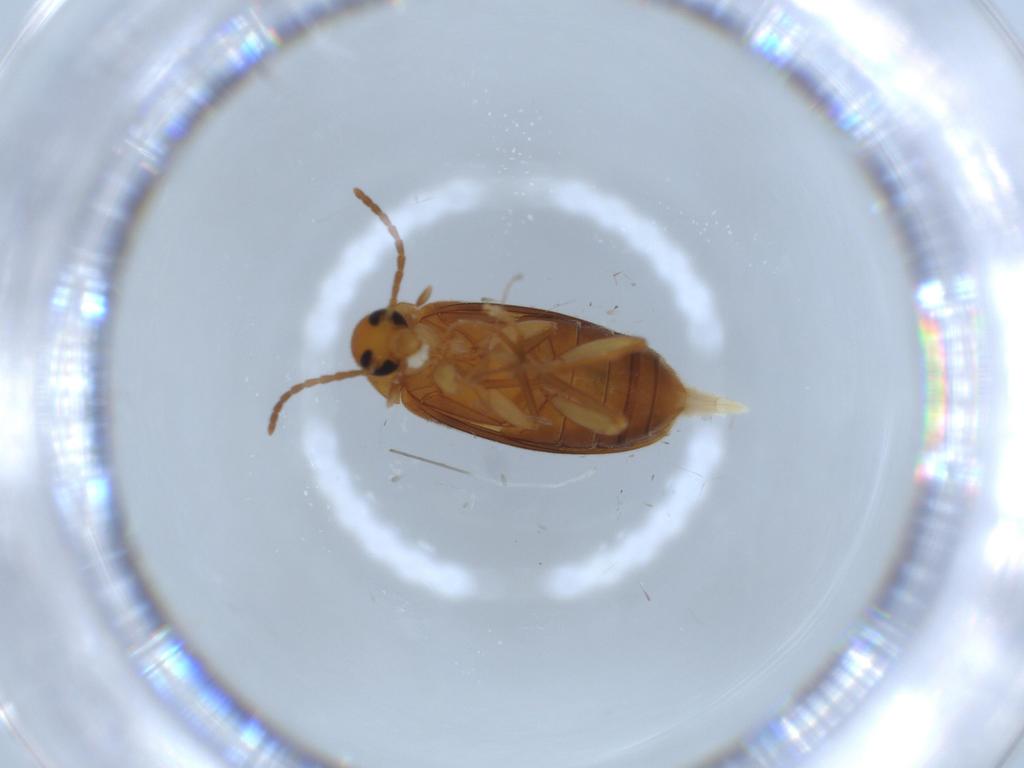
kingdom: Animalia
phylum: Arthropoda
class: Insecta
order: Coleoptera
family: Scraptiidae
